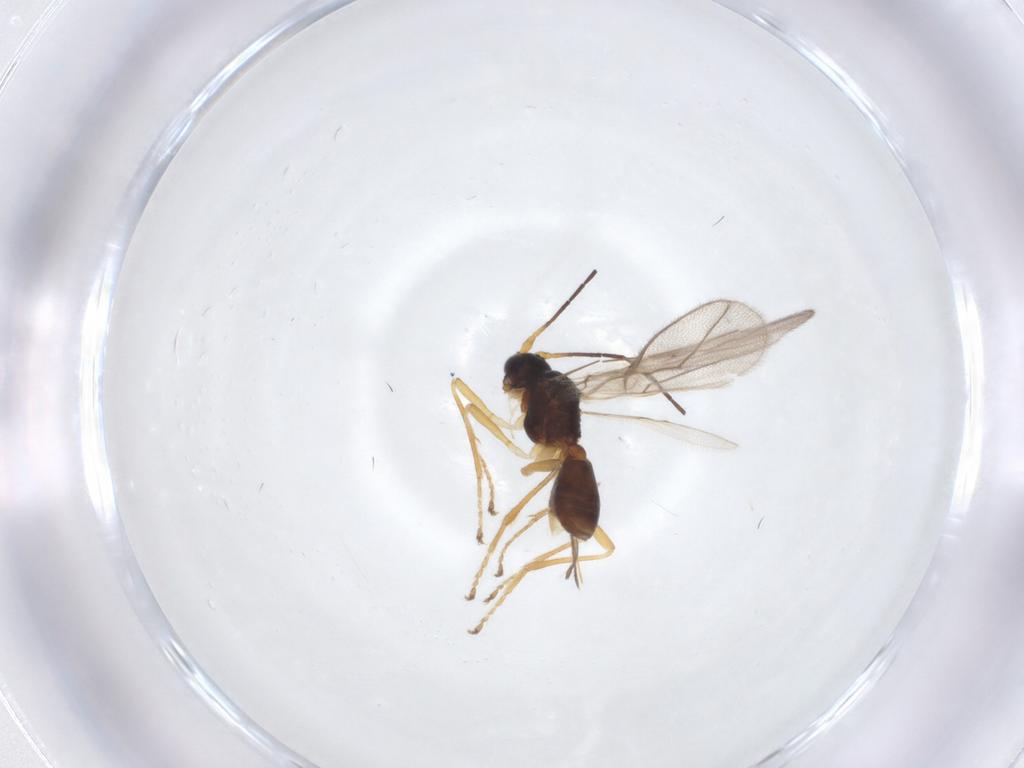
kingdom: Animalia
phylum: Arthropoda
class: Insecta
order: Hymenoptera
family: Braconidae
